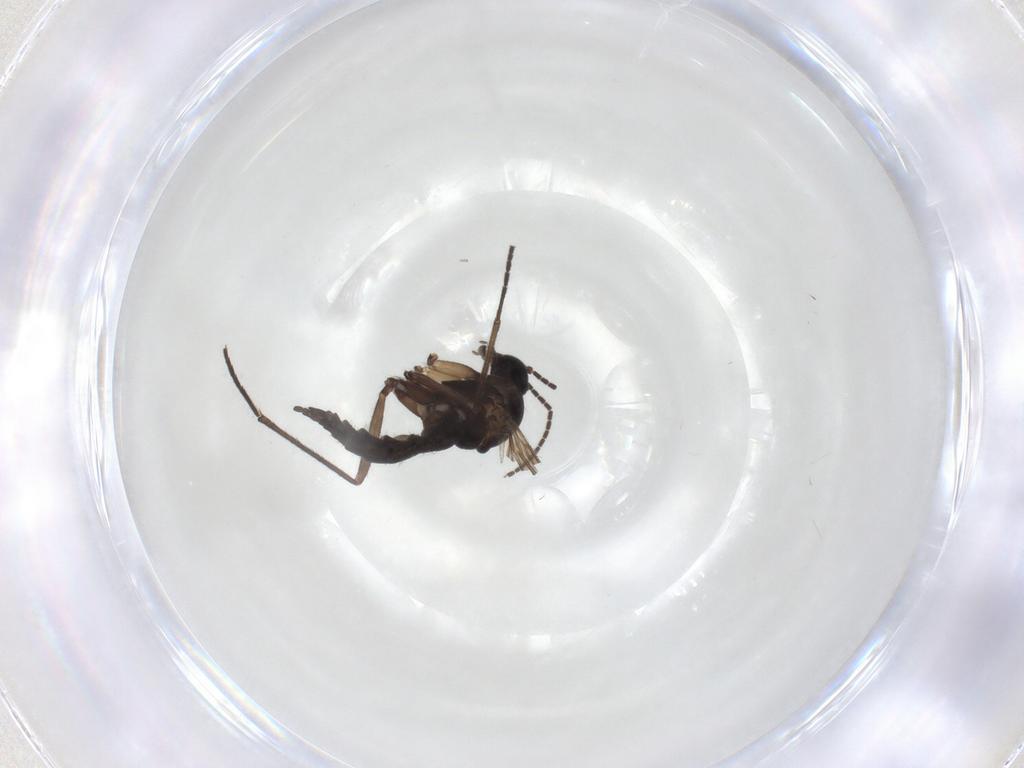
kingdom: Animalia
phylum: Arthropoda
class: Insecta
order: Diptera
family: Sciaridae
